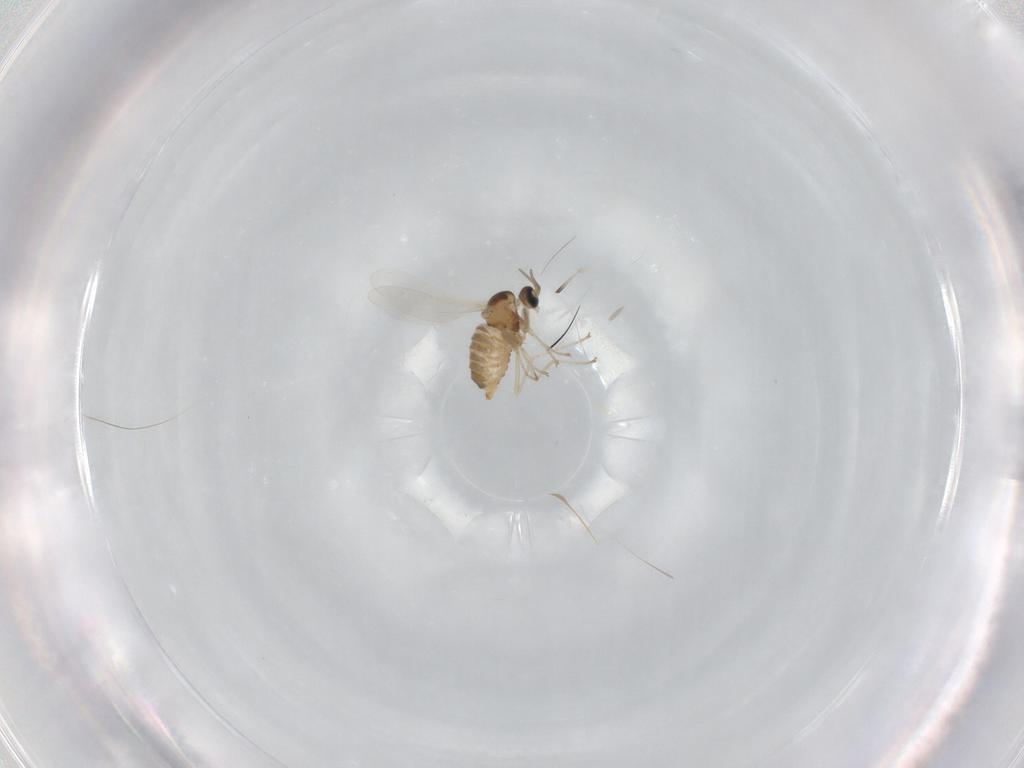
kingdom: Animalia
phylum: Arthropoda
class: Insecta
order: Diptera
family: Cecidomyiidae
